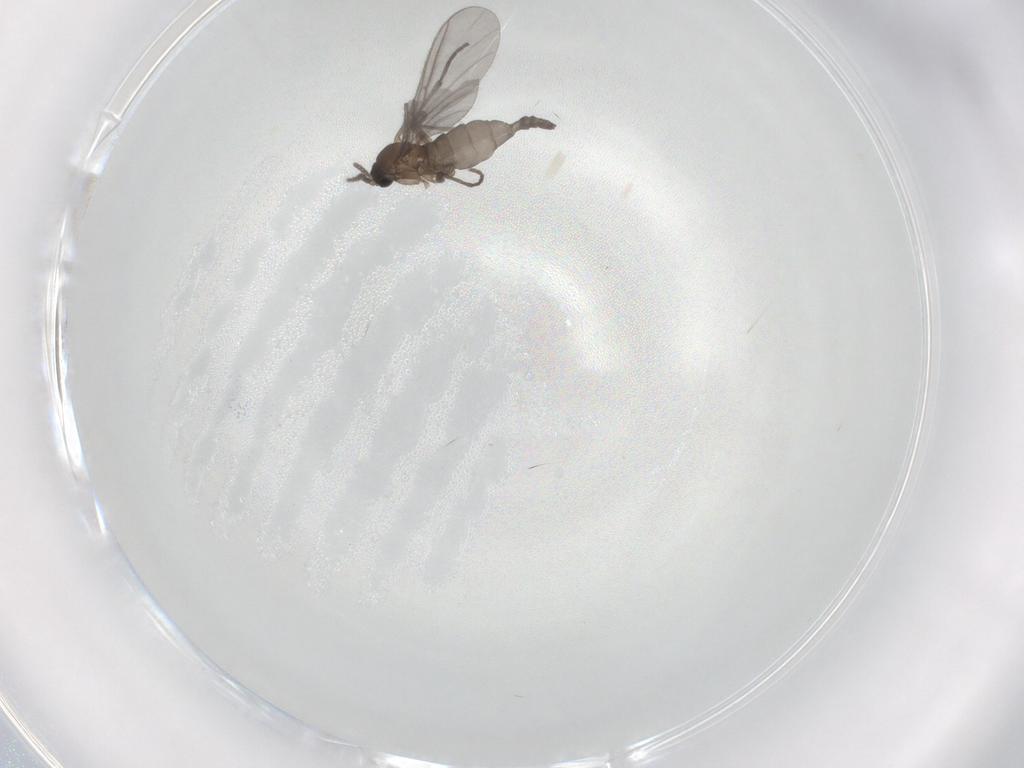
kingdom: Animalia
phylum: Arthropoda
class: Insecta
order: Diptera
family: Sciaridae
